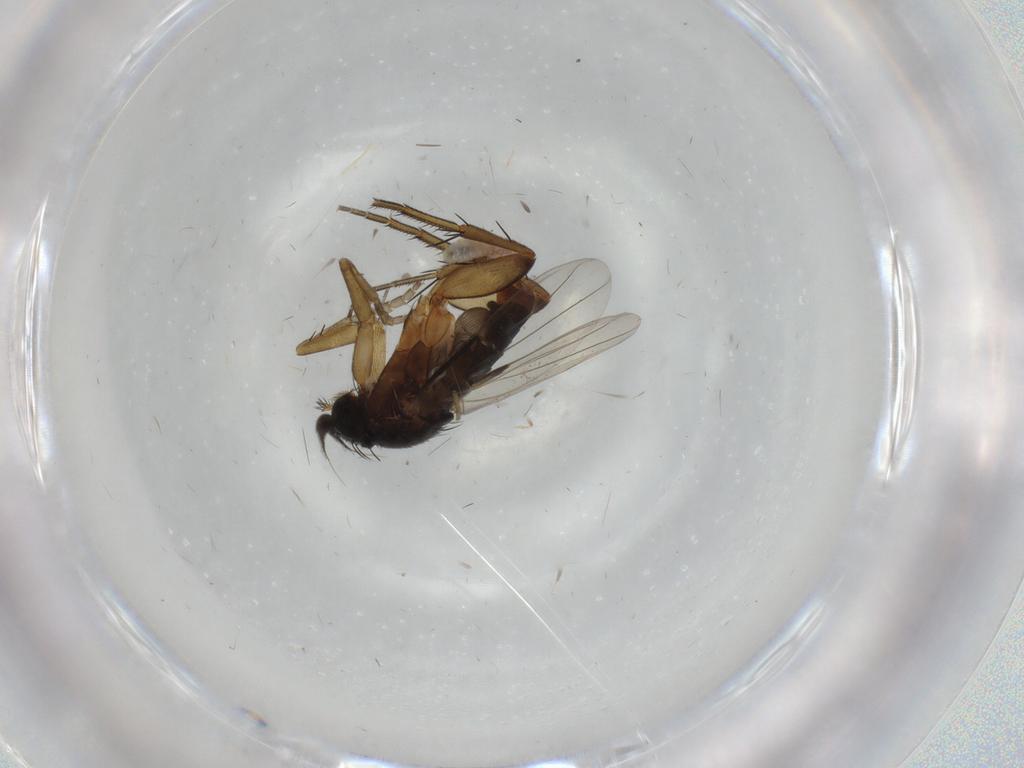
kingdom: Animalia
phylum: Arthropoda
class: Insecta
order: Diptera
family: Phoridae
